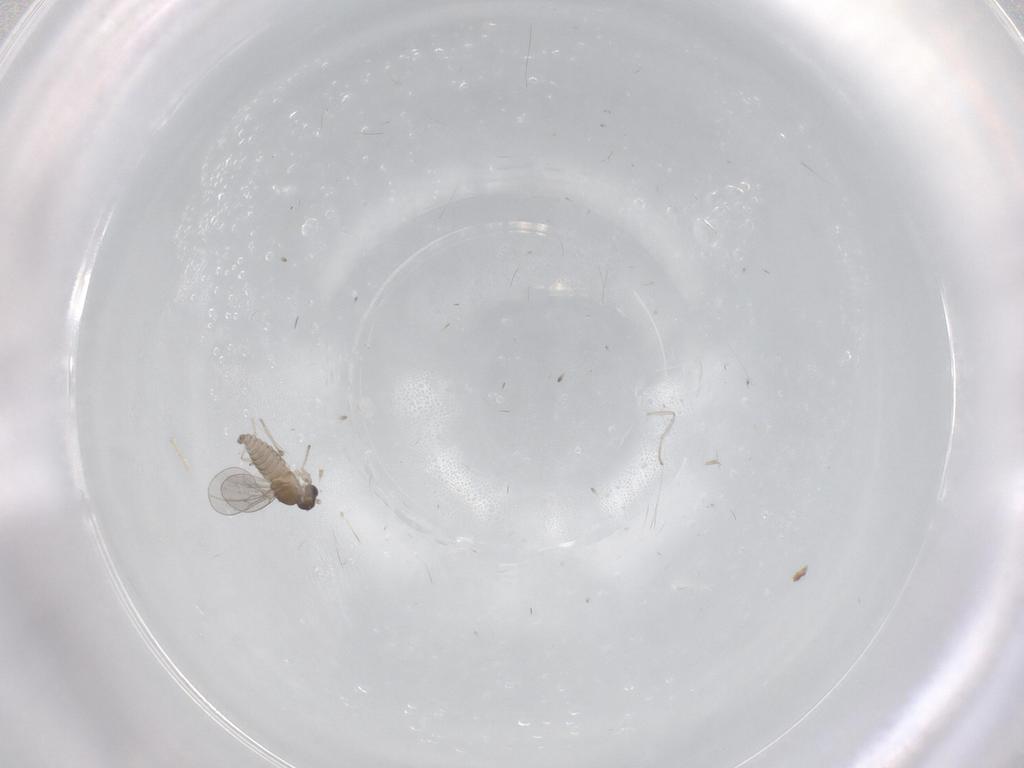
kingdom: Animalia
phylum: Arthropoda
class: Insecta
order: Diptera
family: Cecidomyiidae
